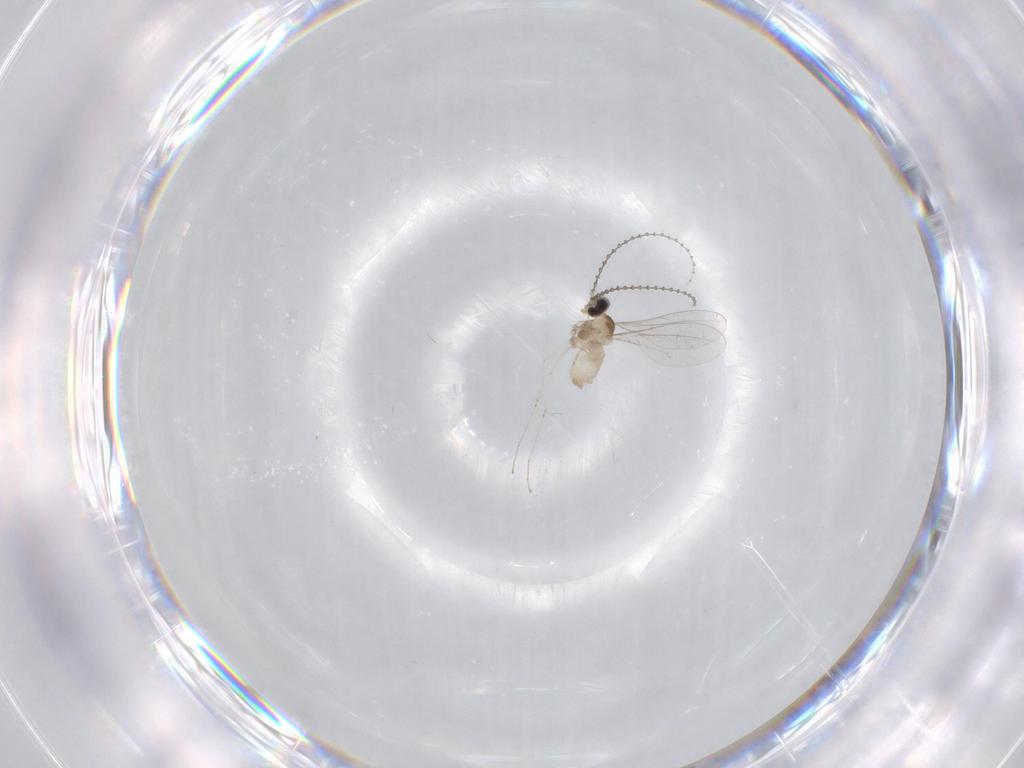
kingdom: Animalia
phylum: Arthropoda
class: Insecta
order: Diptera
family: Cecidomyiidae
